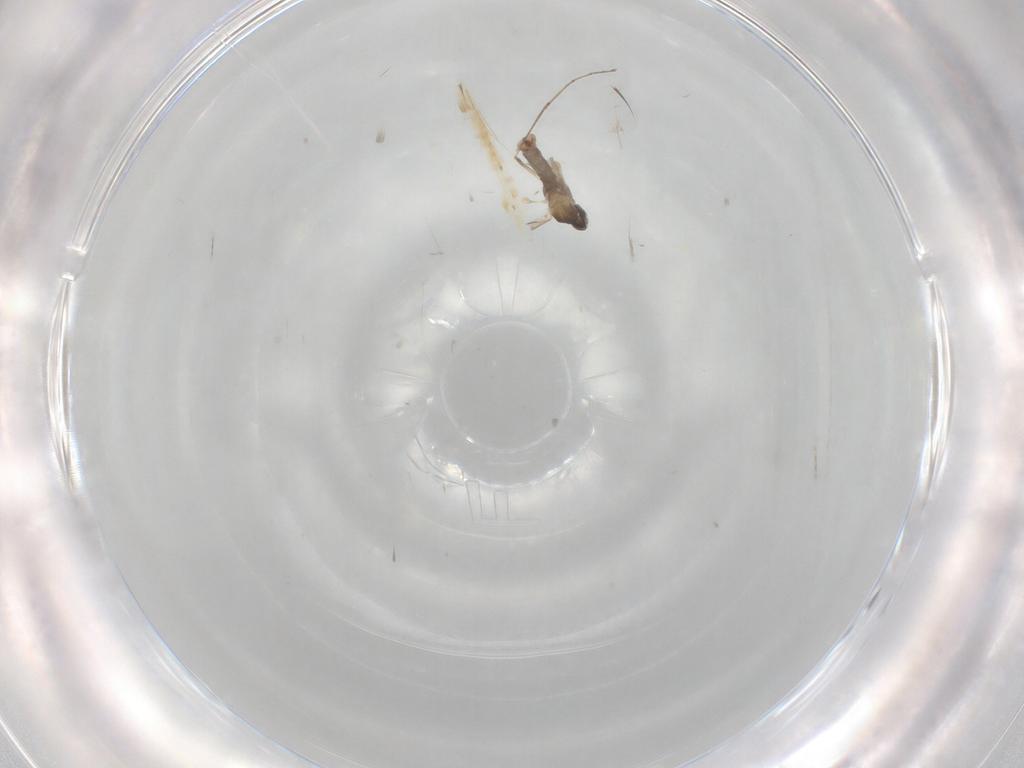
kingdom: Animalia
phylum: Arthropoda
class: Insecta
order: Diptera
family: Cecidomyiidae
